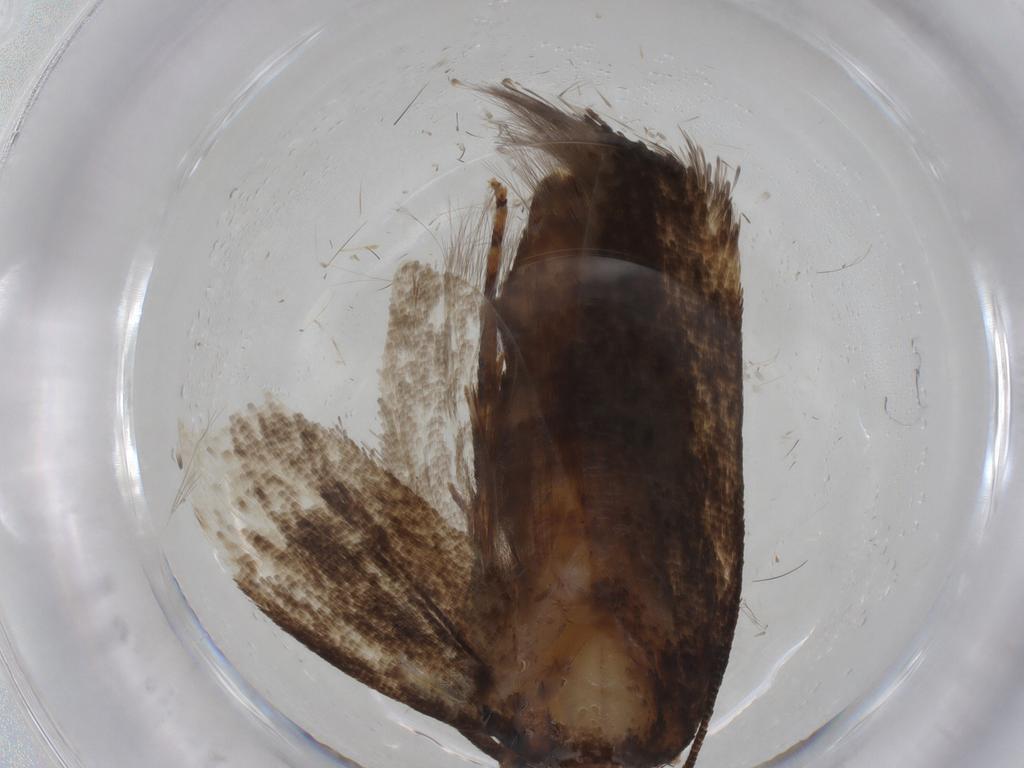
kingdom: Animalia
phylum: Arthropoda
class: Insecta
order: Lepidoptera
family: Gelechiidae
